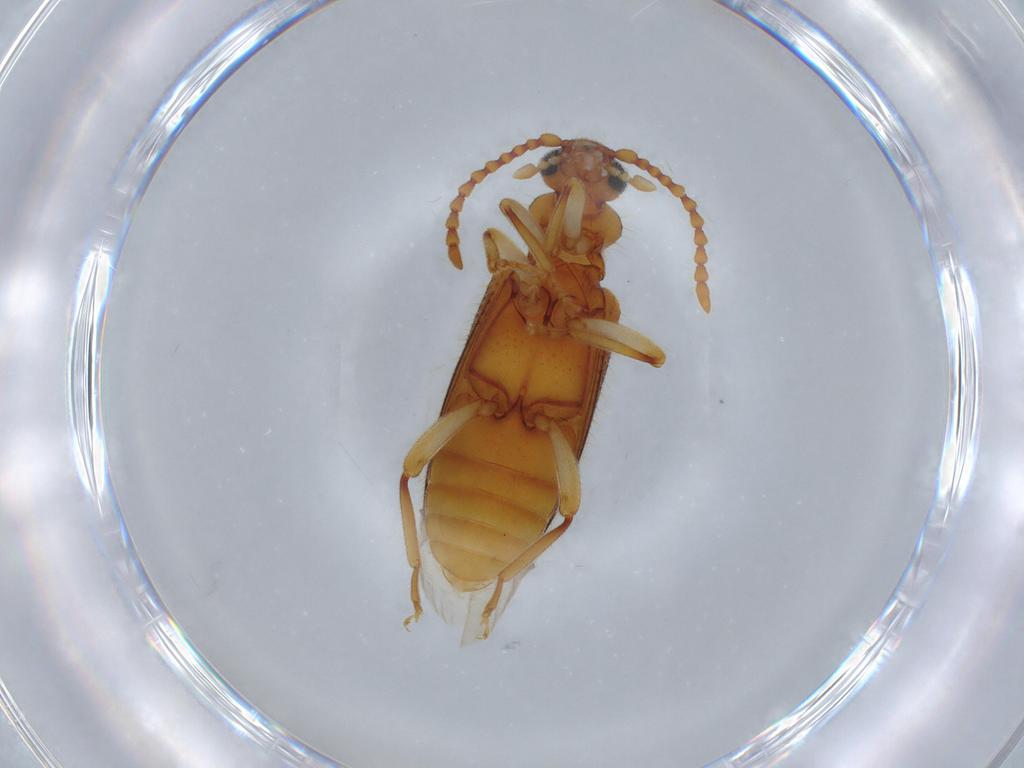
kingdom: Animalia
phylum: Arthropoda
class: Insecta
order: Coleoptera
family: Anthicidae
